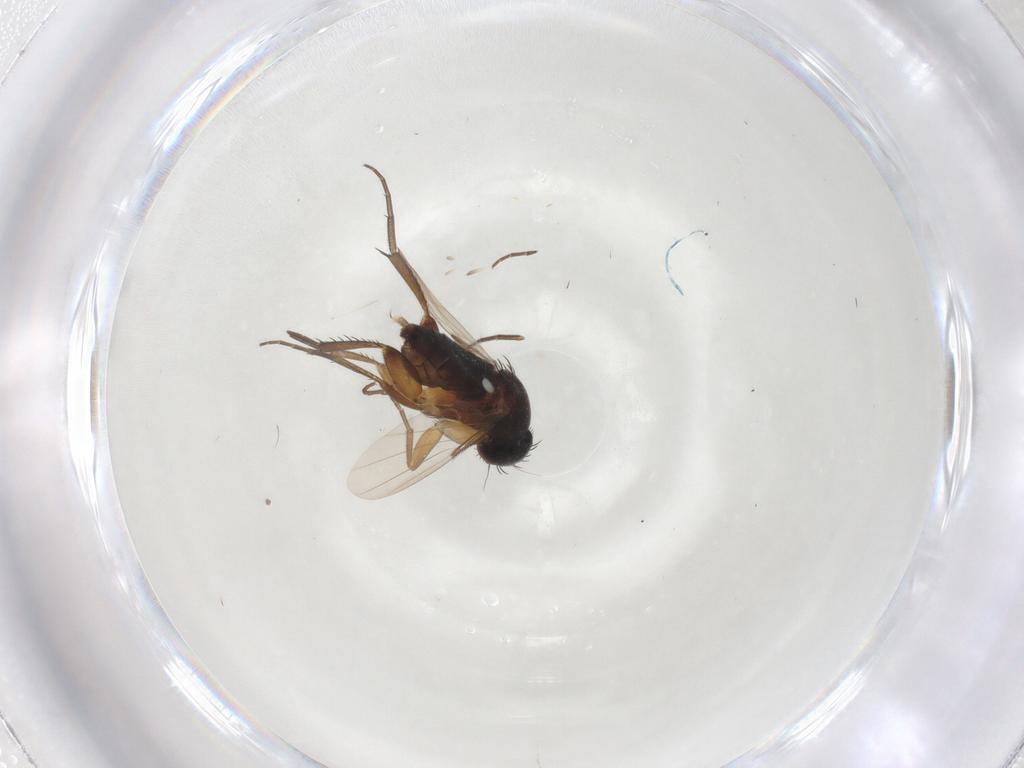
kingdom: Animalia
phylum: Arthropoda
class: Insecta
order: Diptera
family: Phoridae
